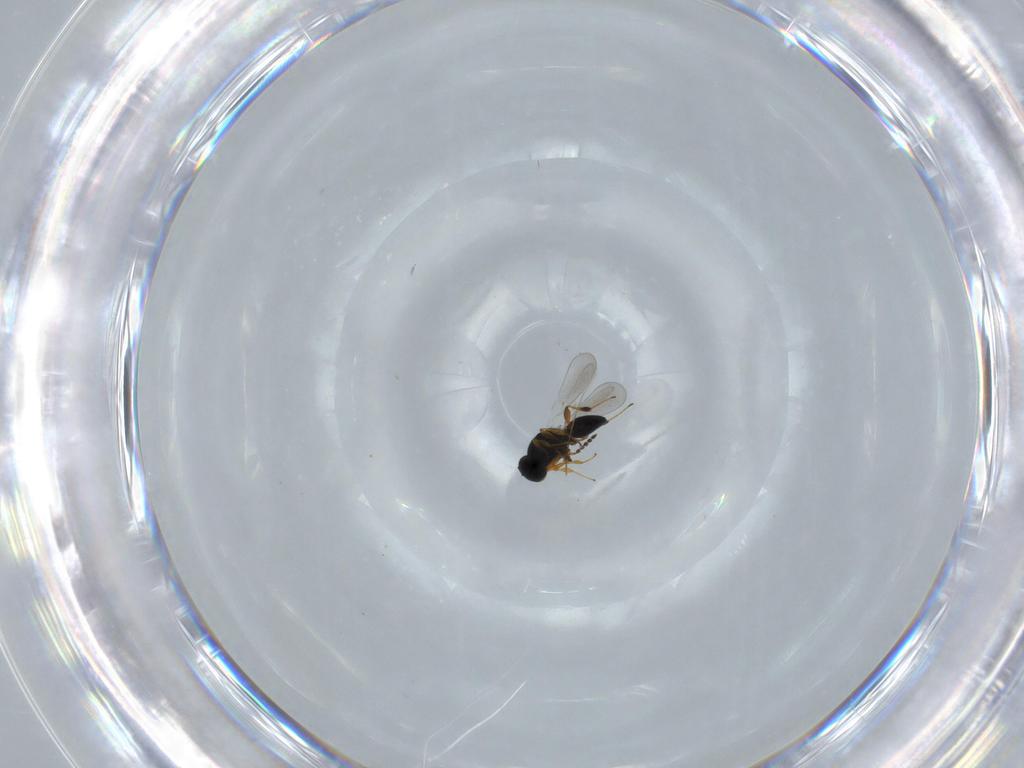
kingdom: Animalia
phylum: Arthropoda
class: Insecta
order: Hymenoptera
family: Platygastridae
